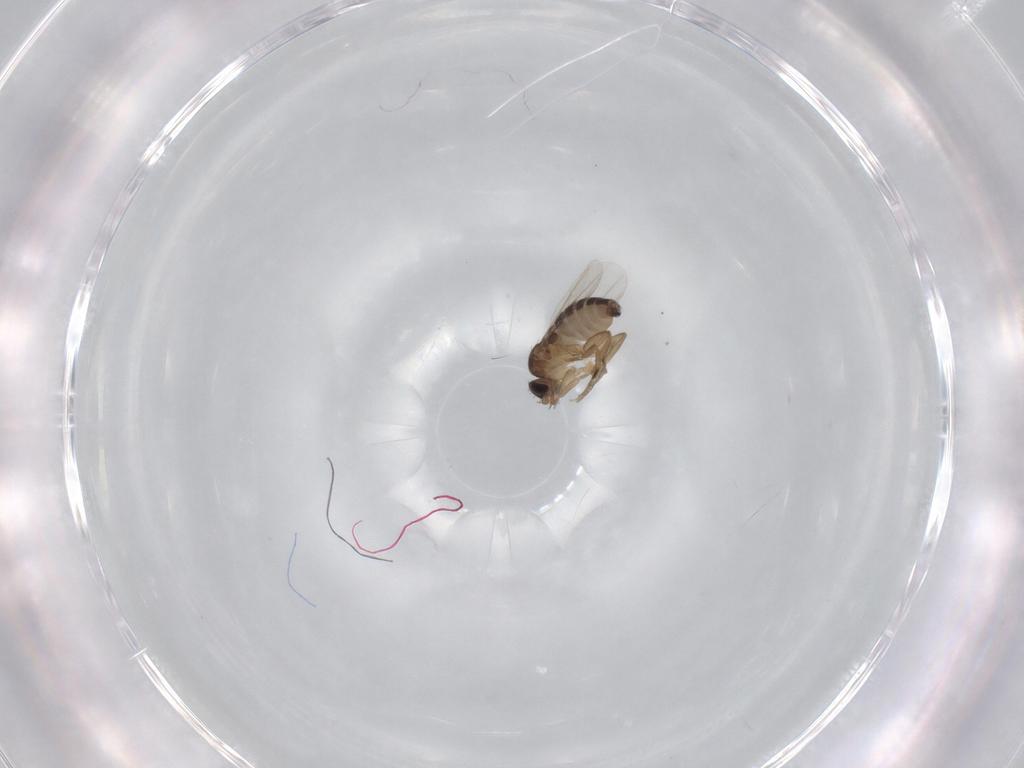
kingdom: Animalia
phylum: Arthropoda
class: Insecta
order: Diptera
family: Phoridae
